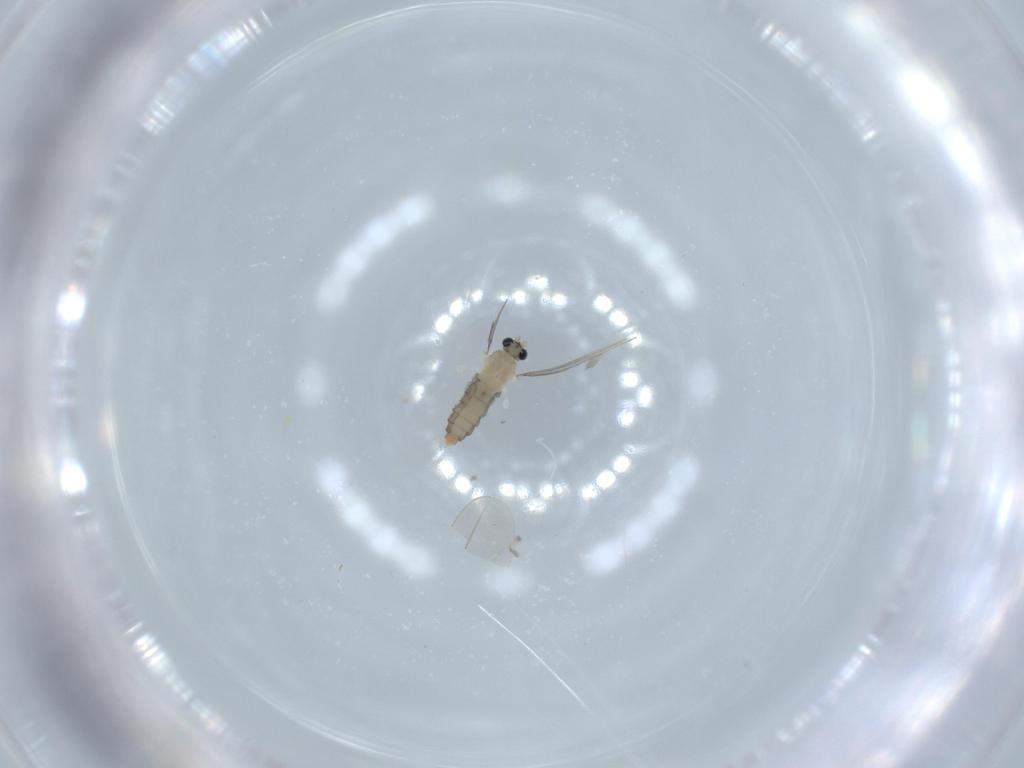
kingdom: Animalia
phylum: Arthropoda
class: Insecta
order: Diptera
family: Cecidomyiidae
